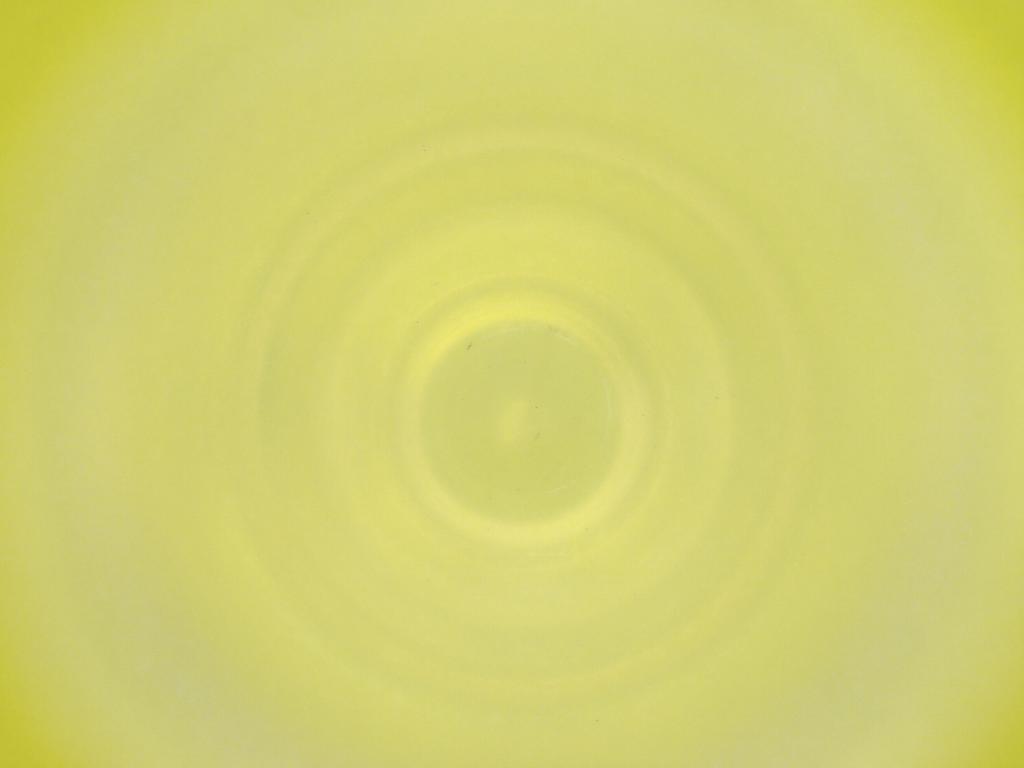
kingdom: Animalia
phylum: Arthropoda
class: Insecta
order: Diptera
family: Cecidomyiidae
